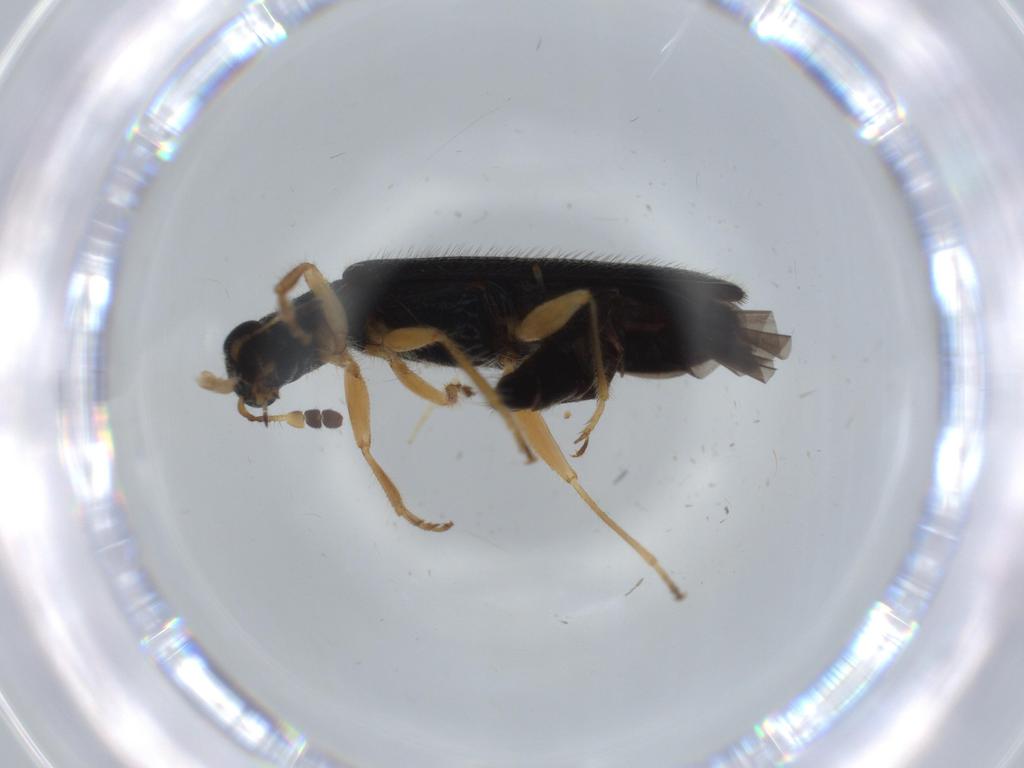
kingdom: Animalia
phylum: Arthropoda
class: Insecta
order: Coleoptera
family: Cleridae
